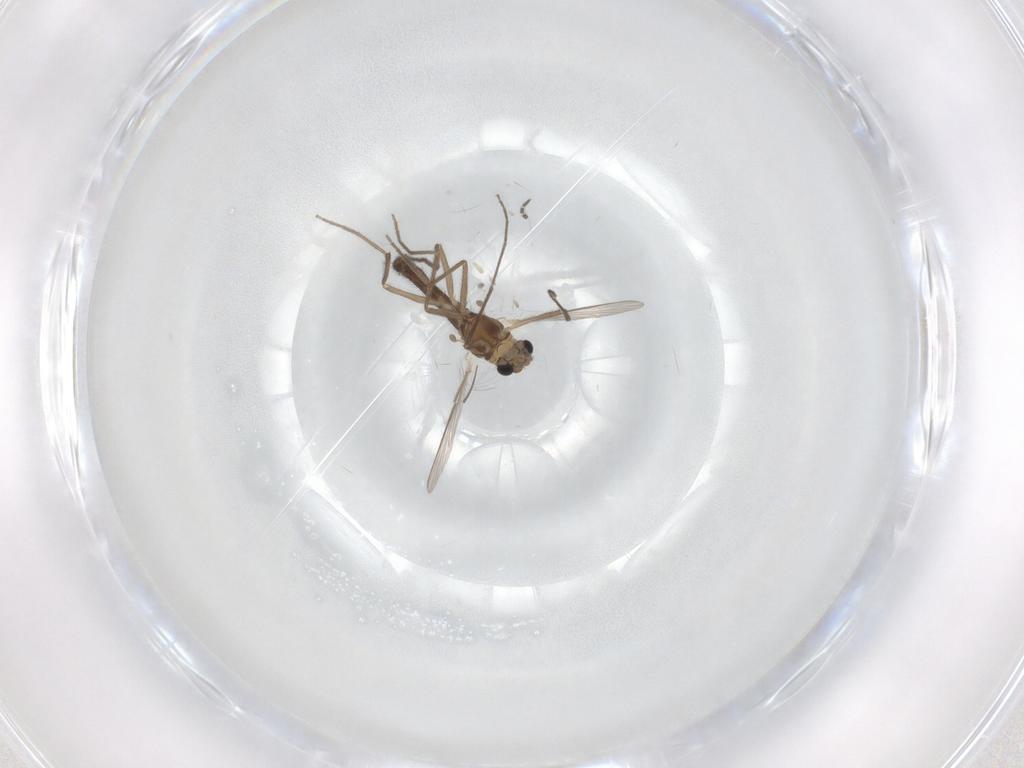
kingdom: Animalia
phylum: Arthropoda
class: Insecta
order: Diptera
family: Chironomidae
